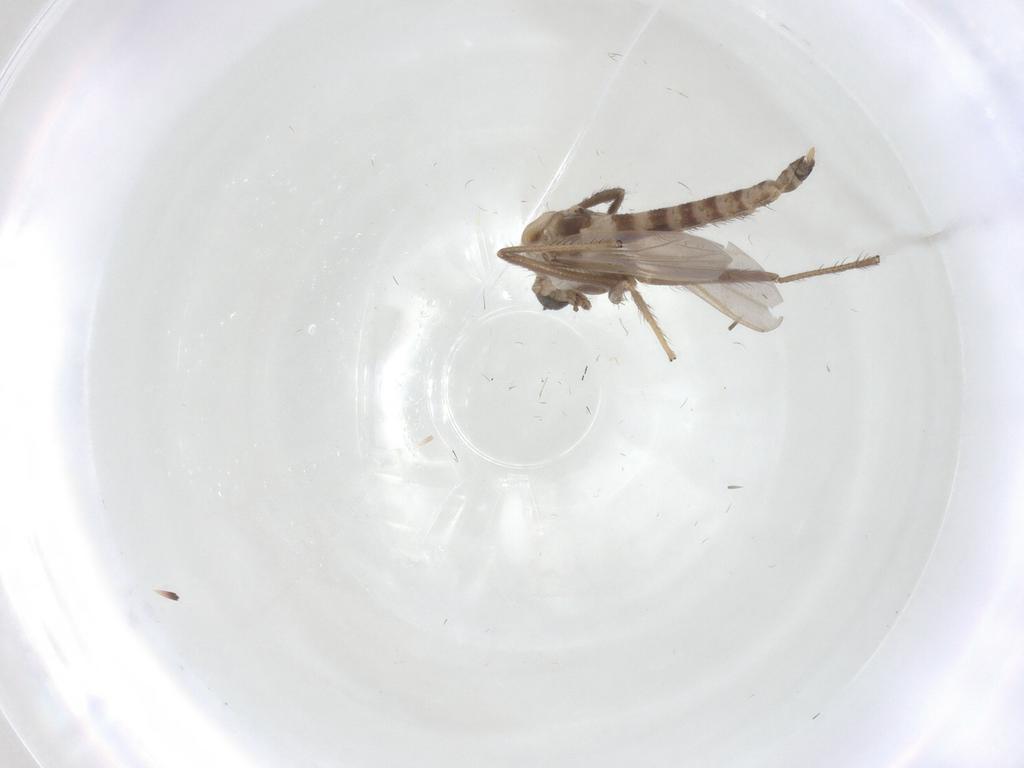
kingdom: Animalia
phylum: Arthropoda
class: Insecta
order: Diptera
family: Chironomidae
